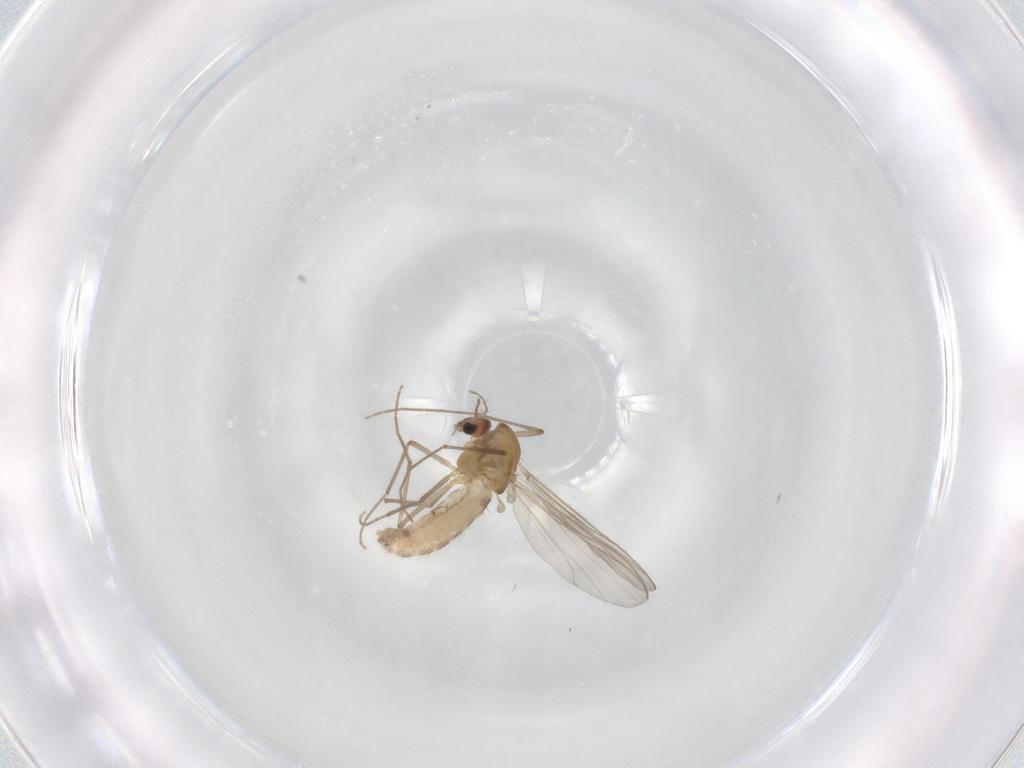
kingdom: Animalia
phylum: Arthropoda
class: Insecta
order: Diptera
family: Chironomidae
